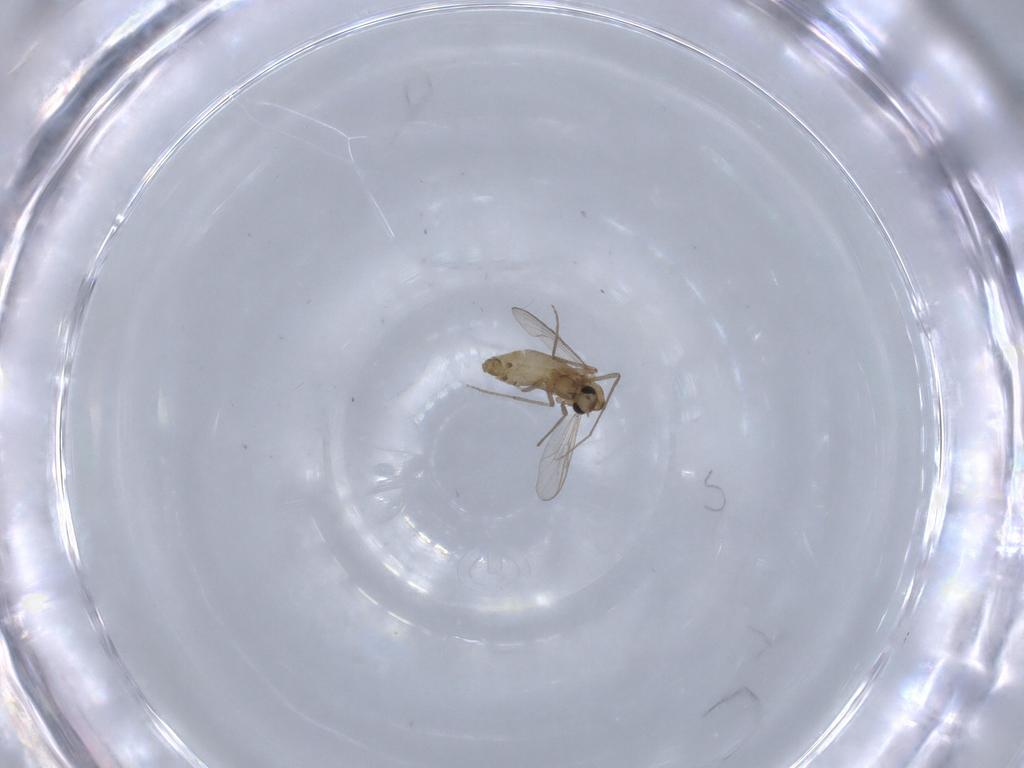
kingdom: Animalia
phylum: Arthropoda
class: Insecta
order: Diptera
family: Chironomidae
